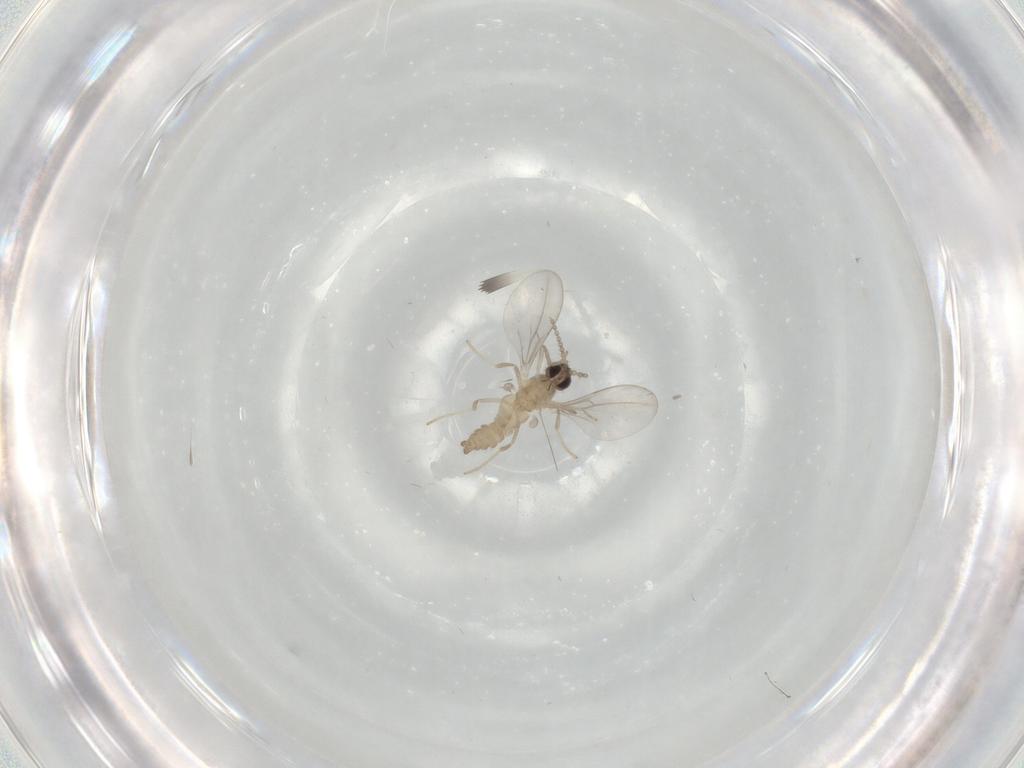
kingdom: Animalia
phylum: Arthropoda
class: Insecta
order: Diptera
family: Cecidomyiidae
